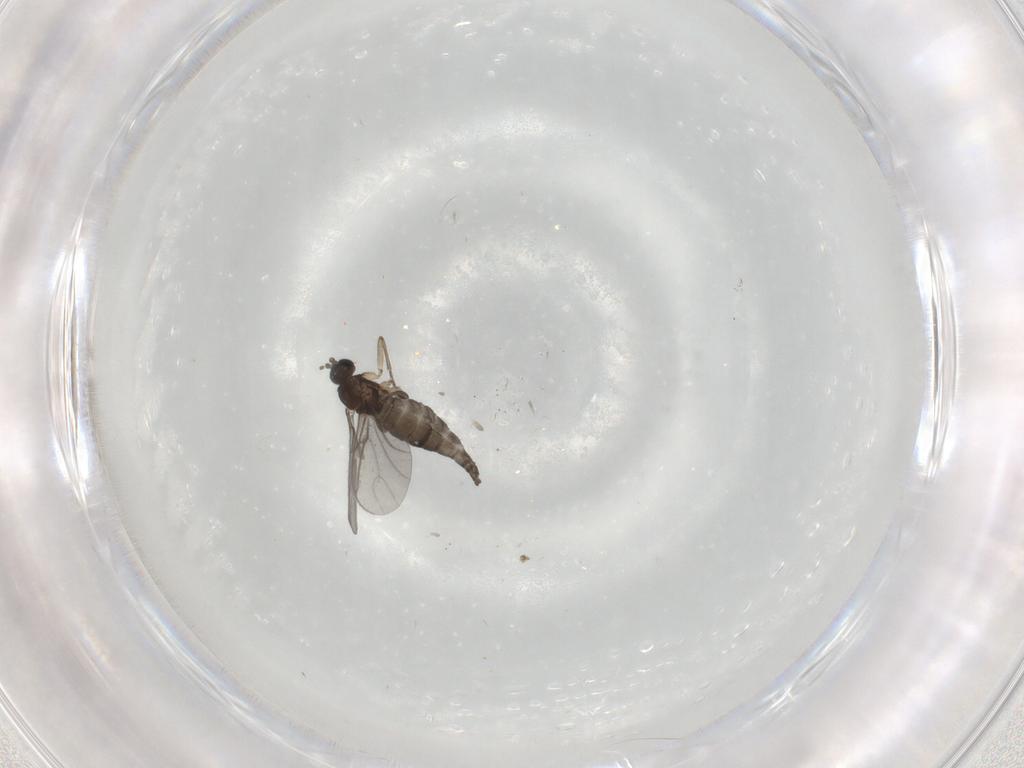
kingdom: Animalia
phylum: Arthropoda
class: Insecta
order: Diptera
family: Sciaridae
